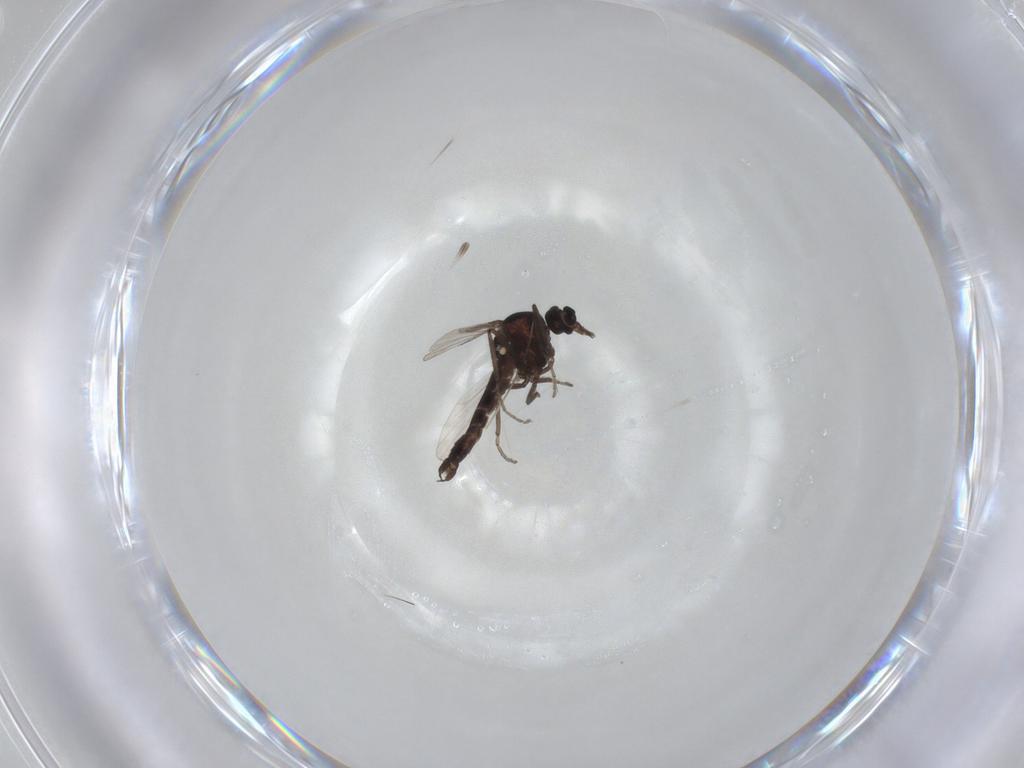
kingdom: Animalia
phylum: Arthropoda
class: Insecta
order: Diptera
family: Ceratopogonidae
